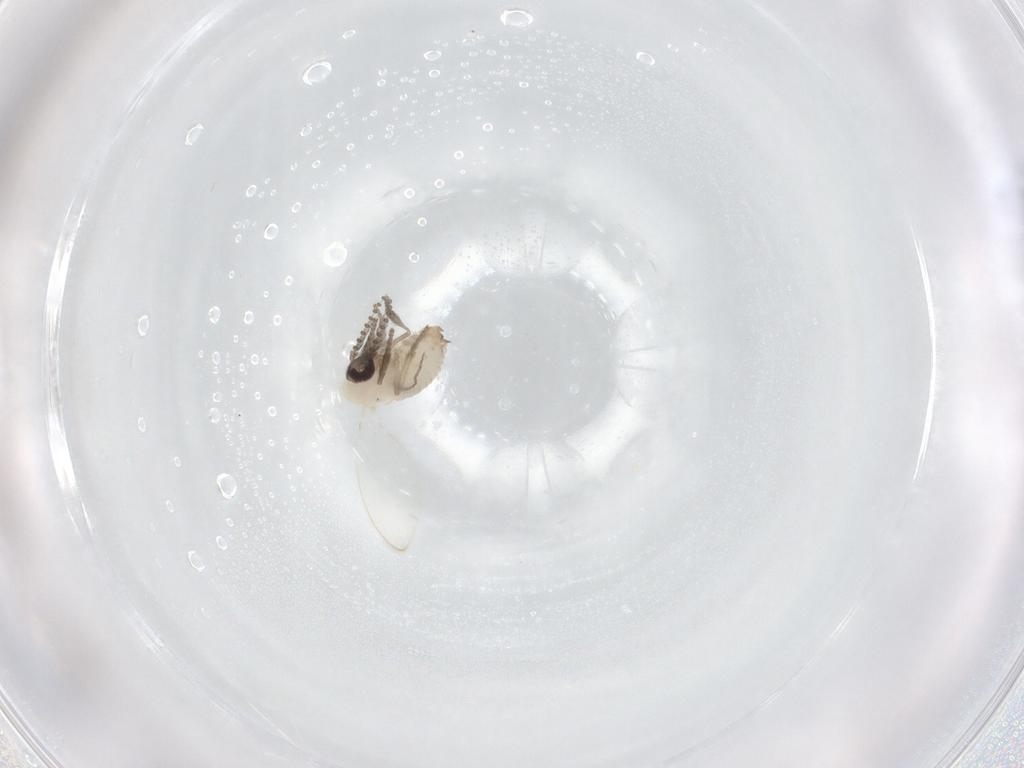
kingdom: Animalia
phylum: Arthropoda
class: Insecta
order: Diptera
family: Psychodidae
